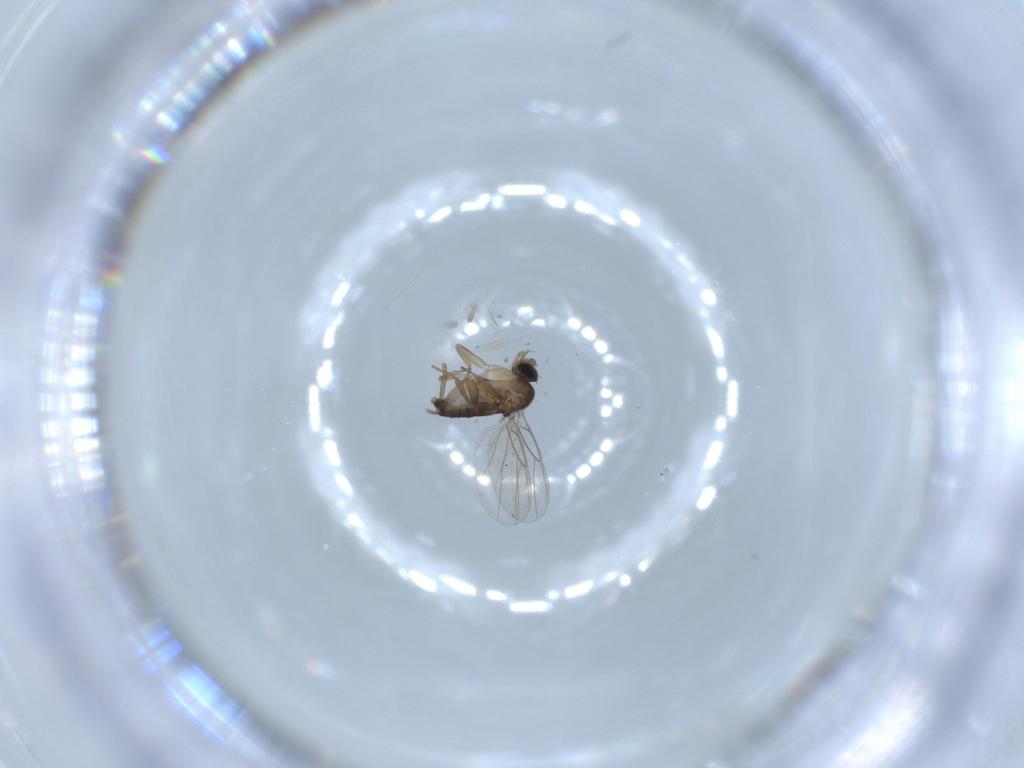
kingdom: Animalia
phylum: Arthropoda
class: Insecta
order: Diptera
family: Phoridae
